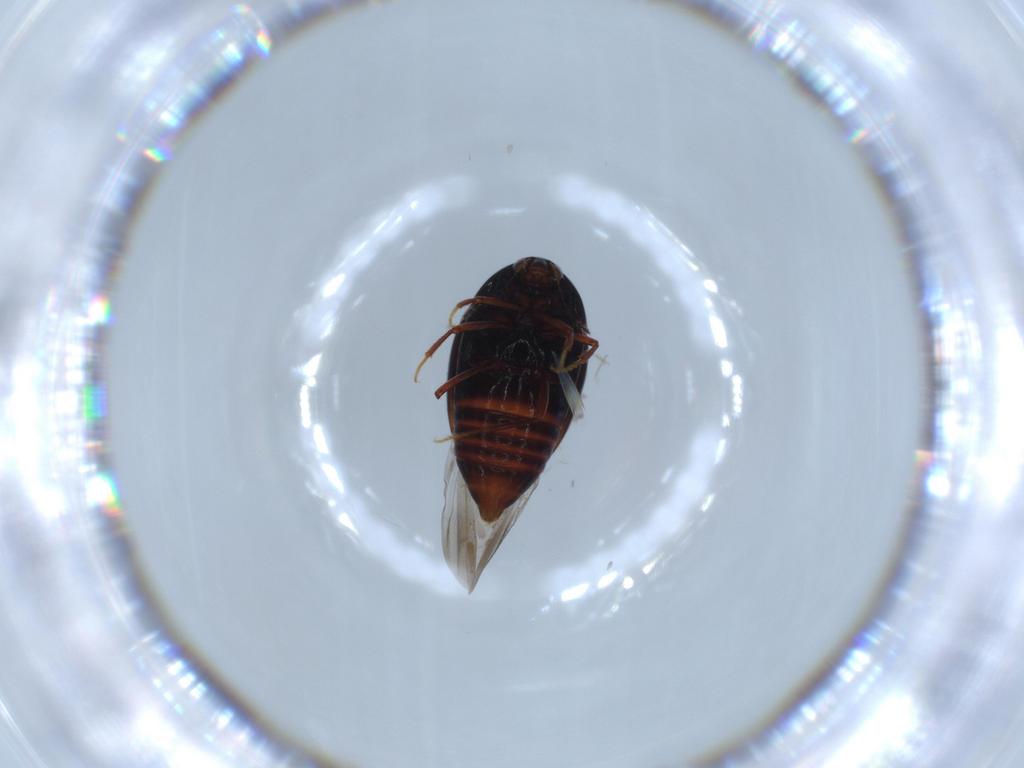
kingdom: Animalia
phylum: Arthropoda
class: Insecta
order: Coleoptera
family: Staphylinidae
